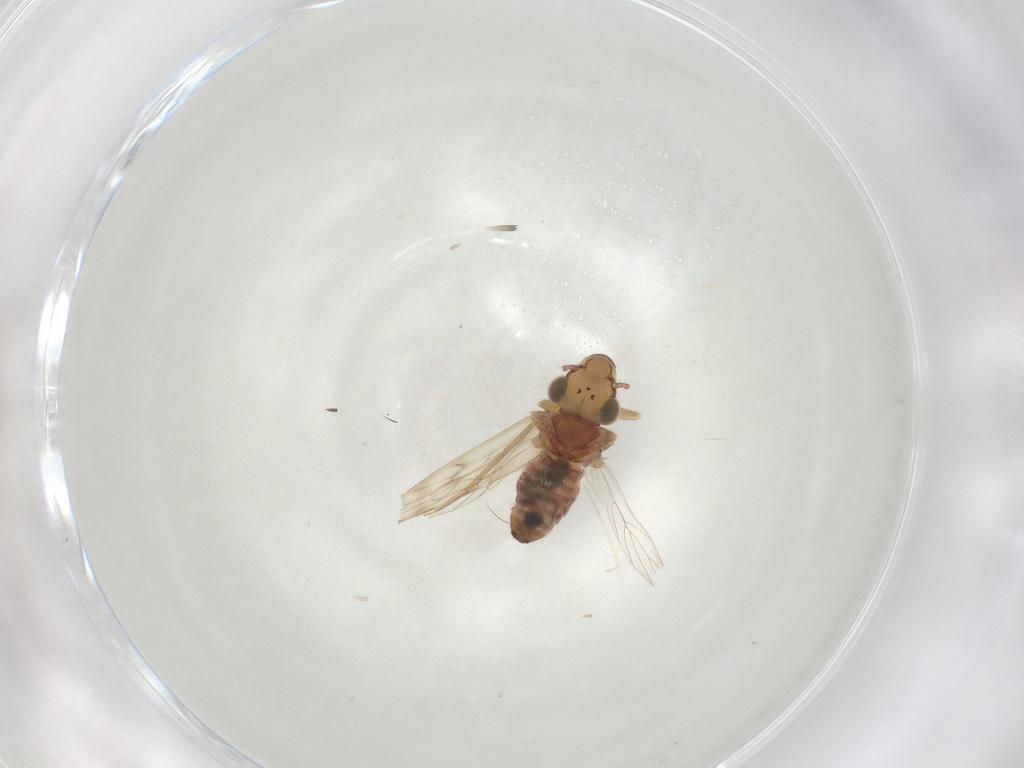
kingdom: Animalia
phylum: Arthropoda
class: Insecta
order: Psocodea
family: Lepidopsocidae
